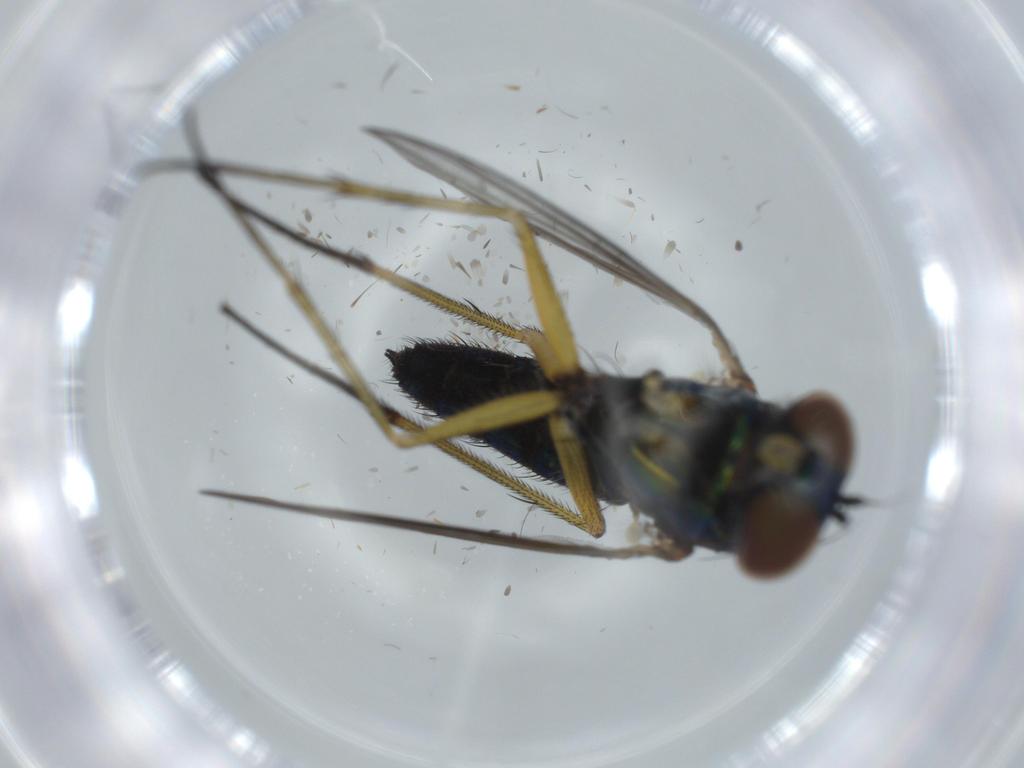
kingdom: Animalia
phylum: Arthropoda
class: Insecta
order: Diptera
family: Dolichopodidae
